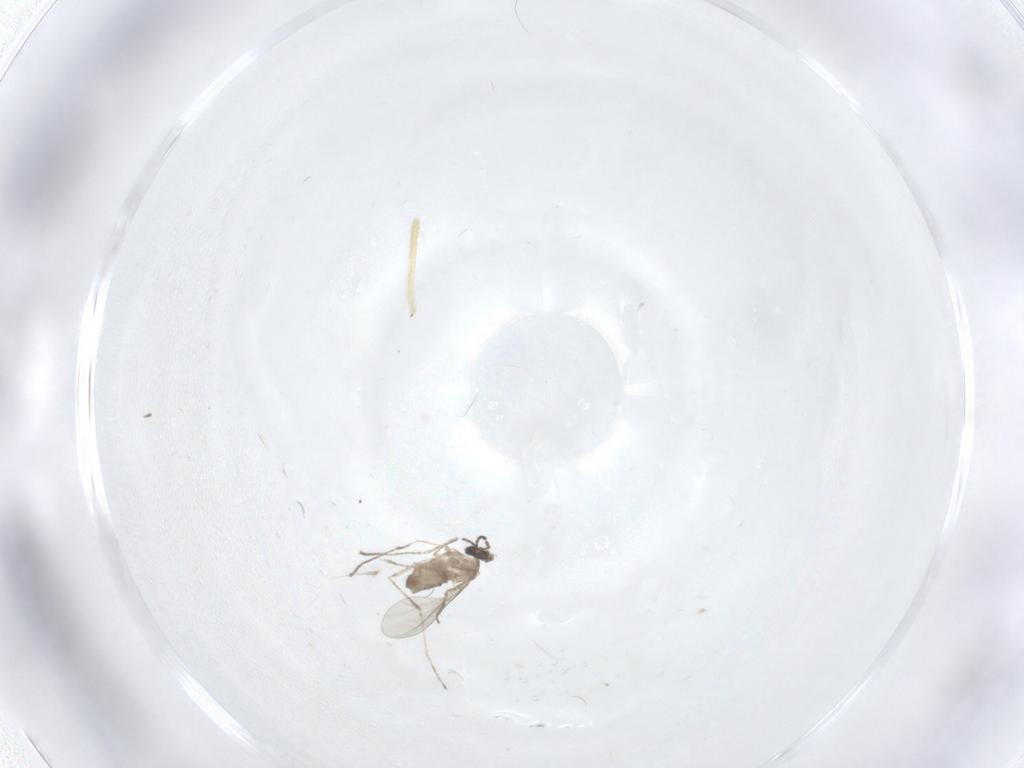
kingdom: Animalia
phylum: Arthropoda
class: Insecta
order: Diptera
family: Cecidomyiidae
